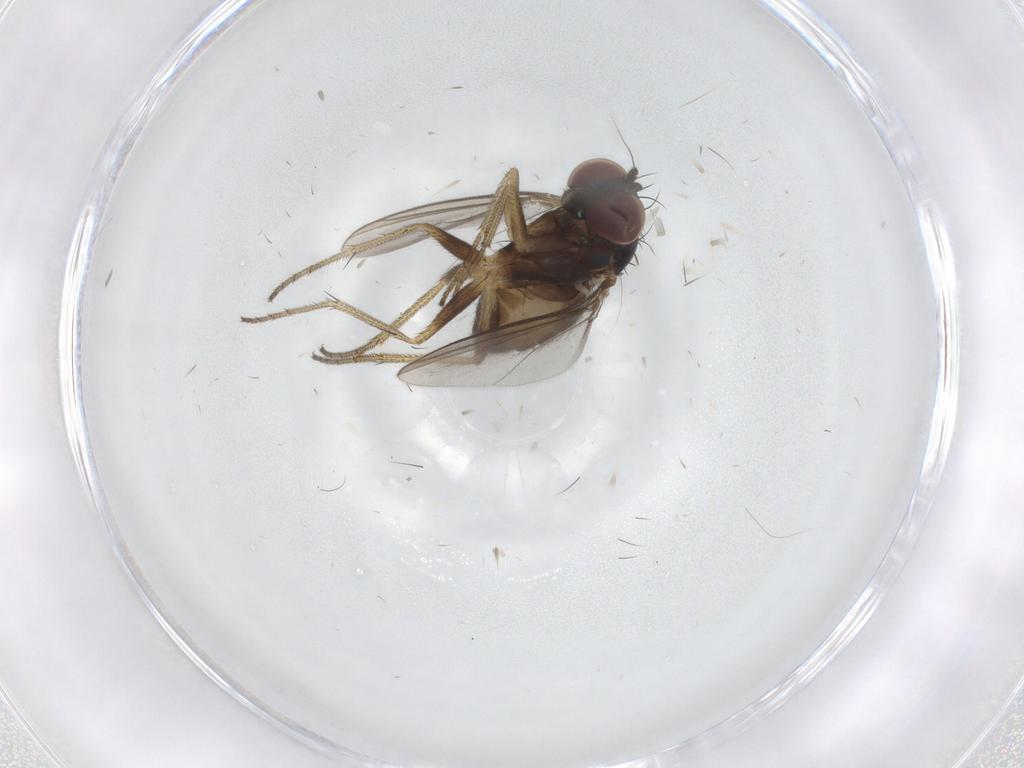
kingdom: Animalia
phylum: Arthropoda
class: Insecta
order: Diptera
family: Dolichopodidae
